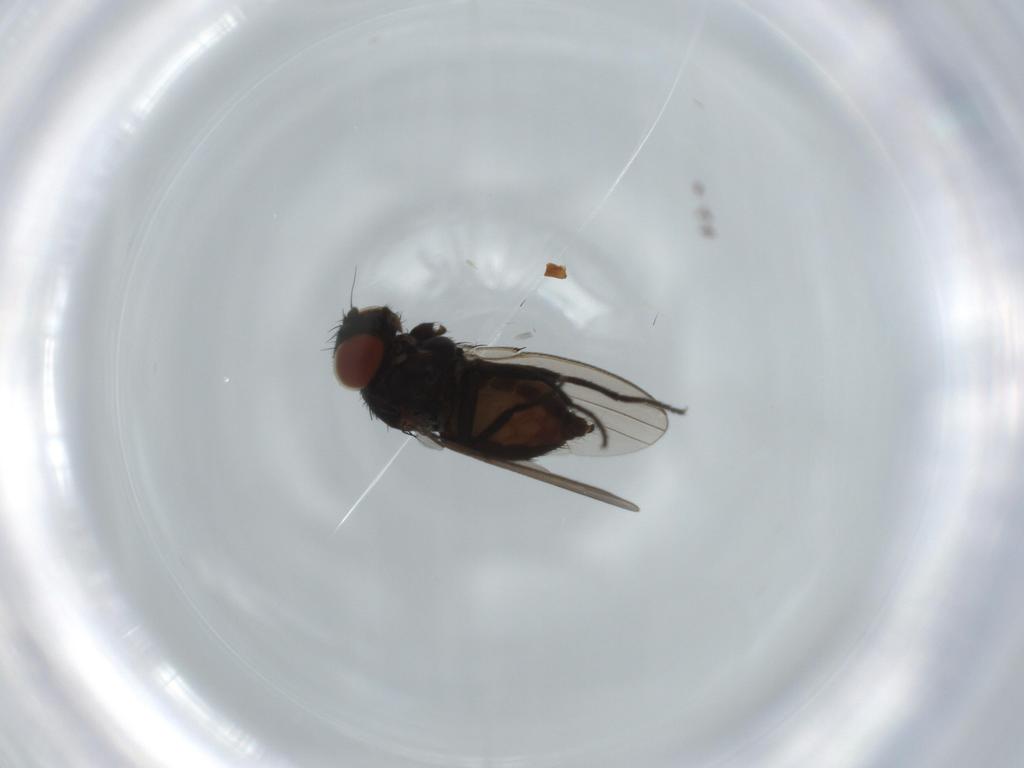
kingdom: Animalia
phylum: Arthropoda
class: Insecta
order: Diptera
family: Milichiidae
